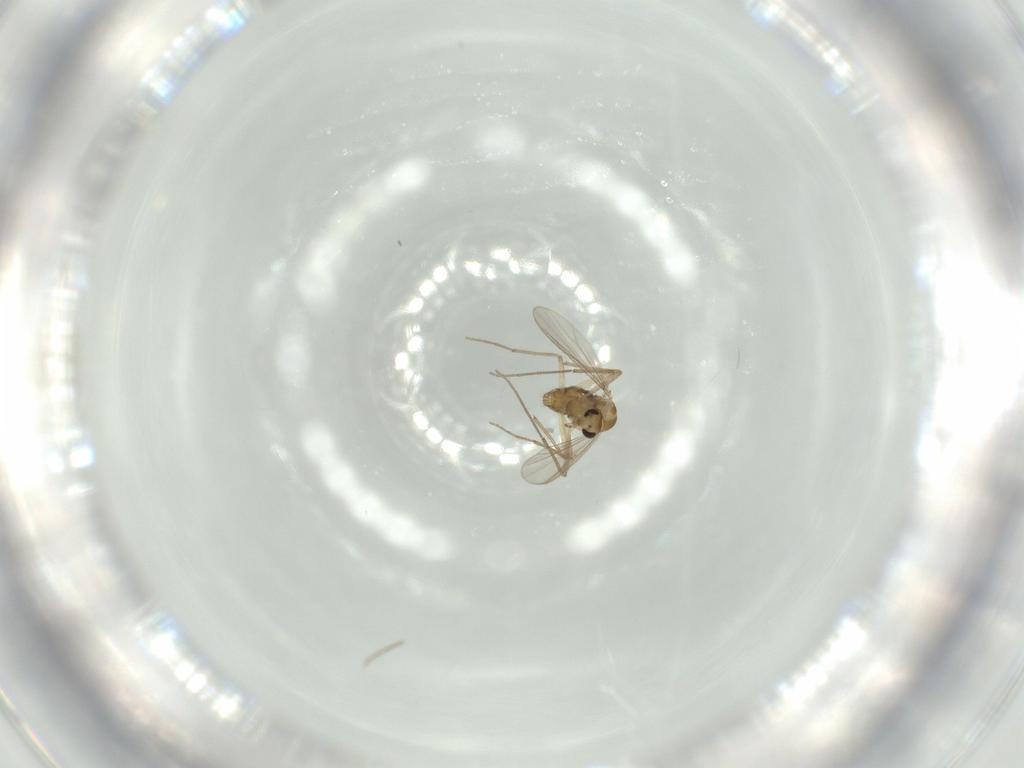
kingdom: Animalia
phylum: Arthropoda
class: Insecta
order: Diptera
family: Chironomidae
